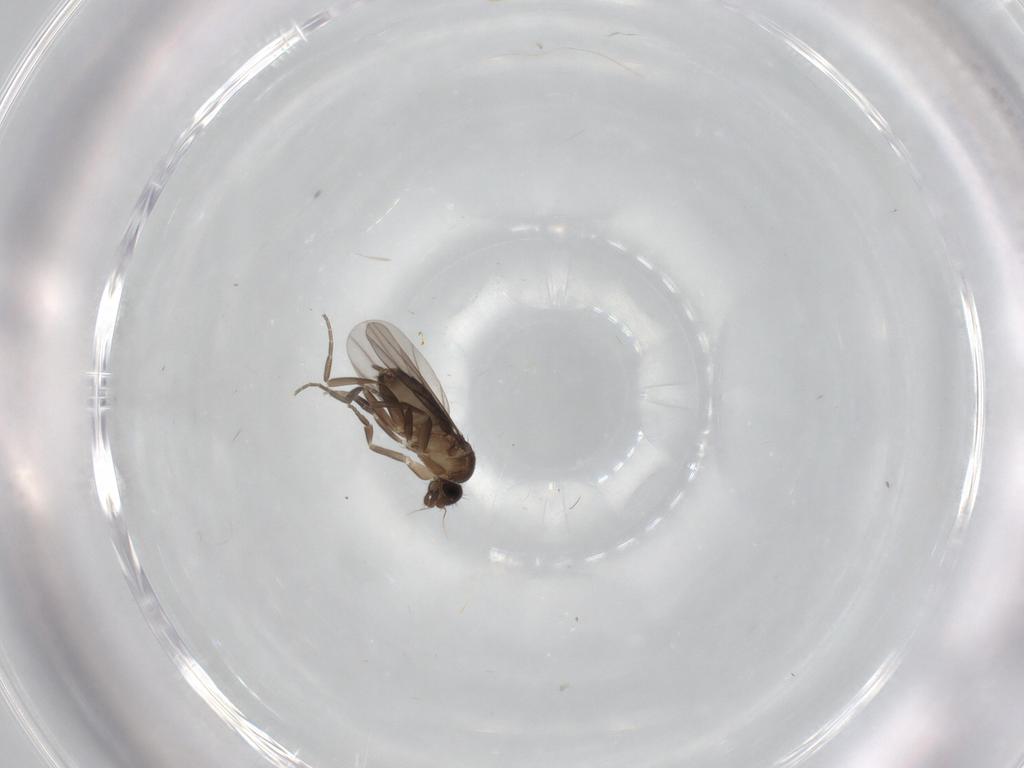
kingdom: Animalia
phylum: Arthropoda
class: Insecta
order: Diptera
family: Phoridae
